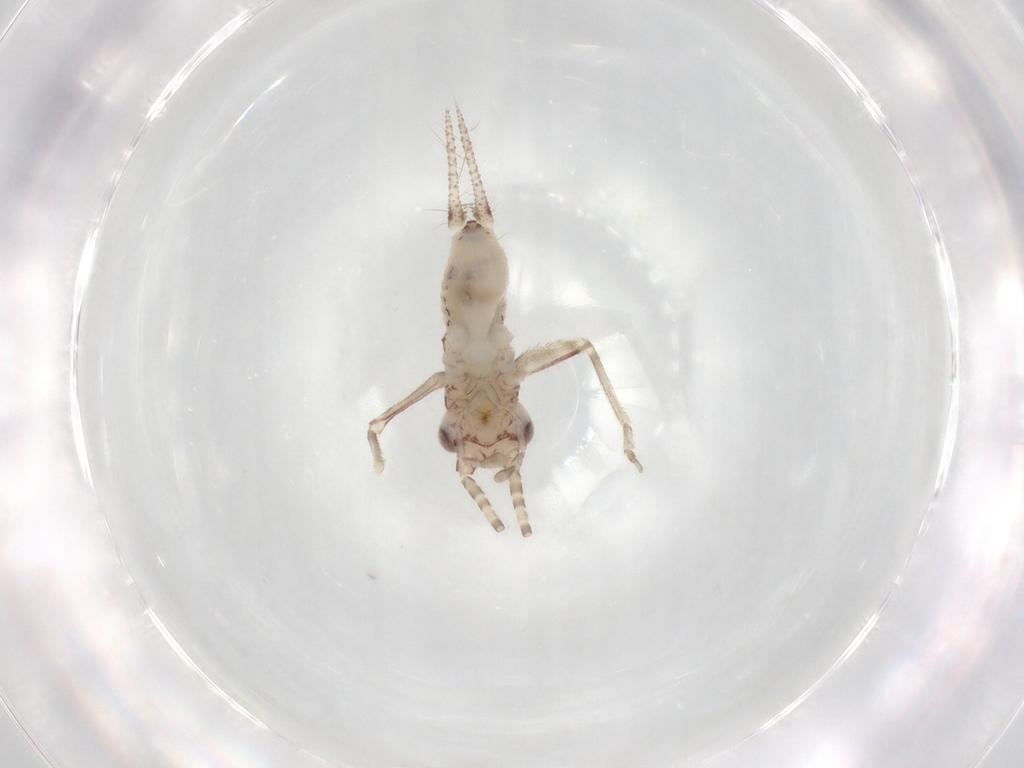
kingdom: Animalia
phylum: Arthropoda
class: Insecta
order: Orthoptera
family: Trigonidiidae
